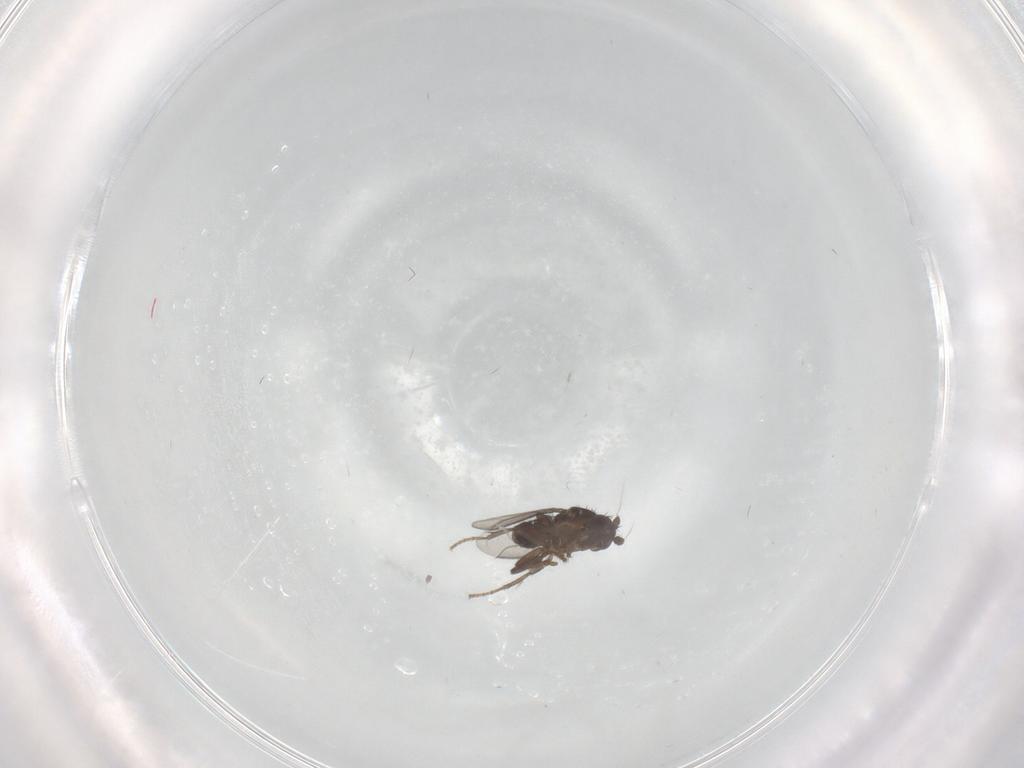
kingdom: Animalia
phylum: Arthropoda
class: Insecta
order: Diptera
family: Sphaeroceridae
